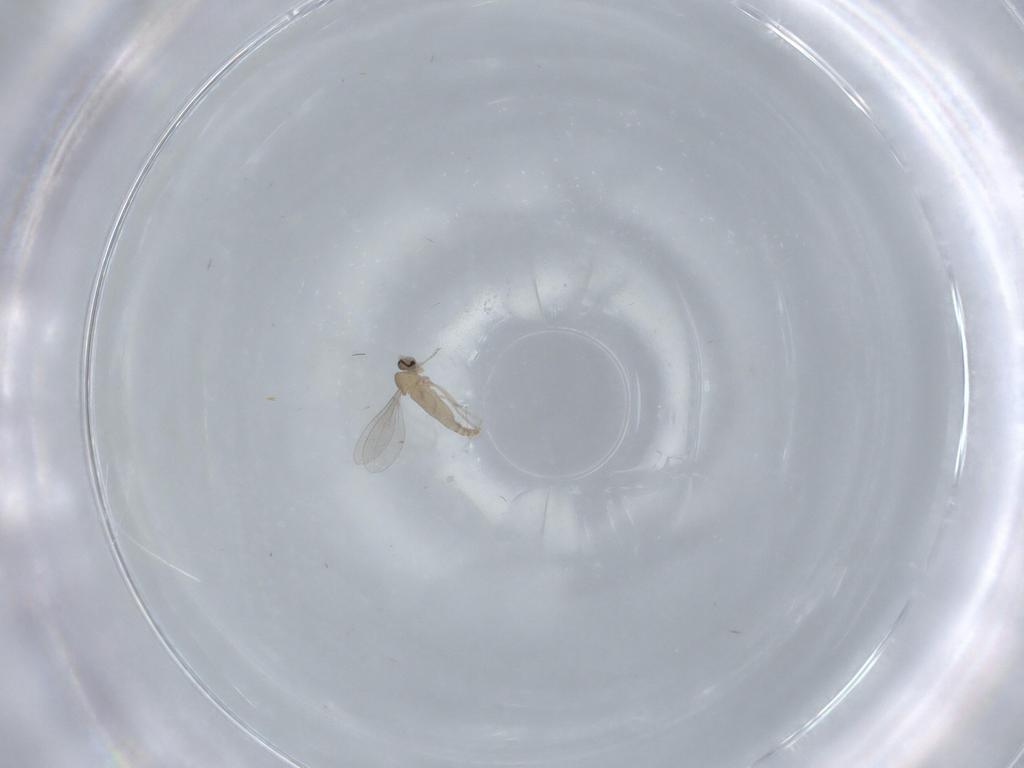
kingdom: Animalia
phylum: Arthropoda
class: Insecta
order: Diptera
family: Cecidomyiidae
